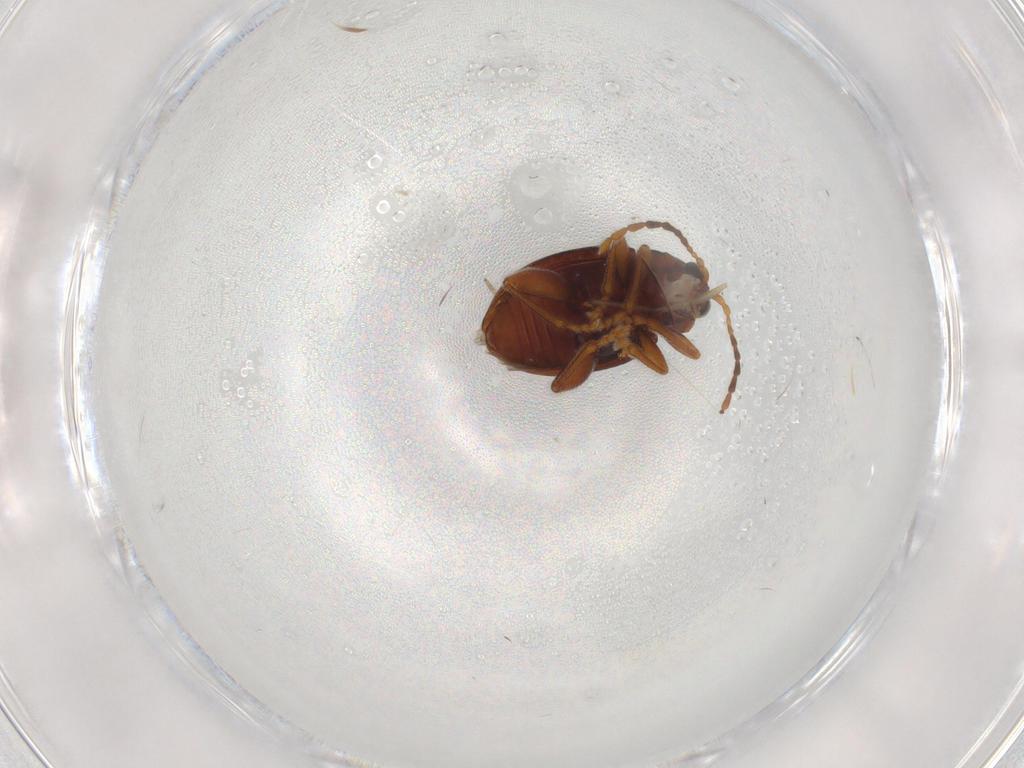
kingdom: Animalia
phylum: Arthropoda
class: Insecta
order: Coleoptera
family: Chrysomelidae
